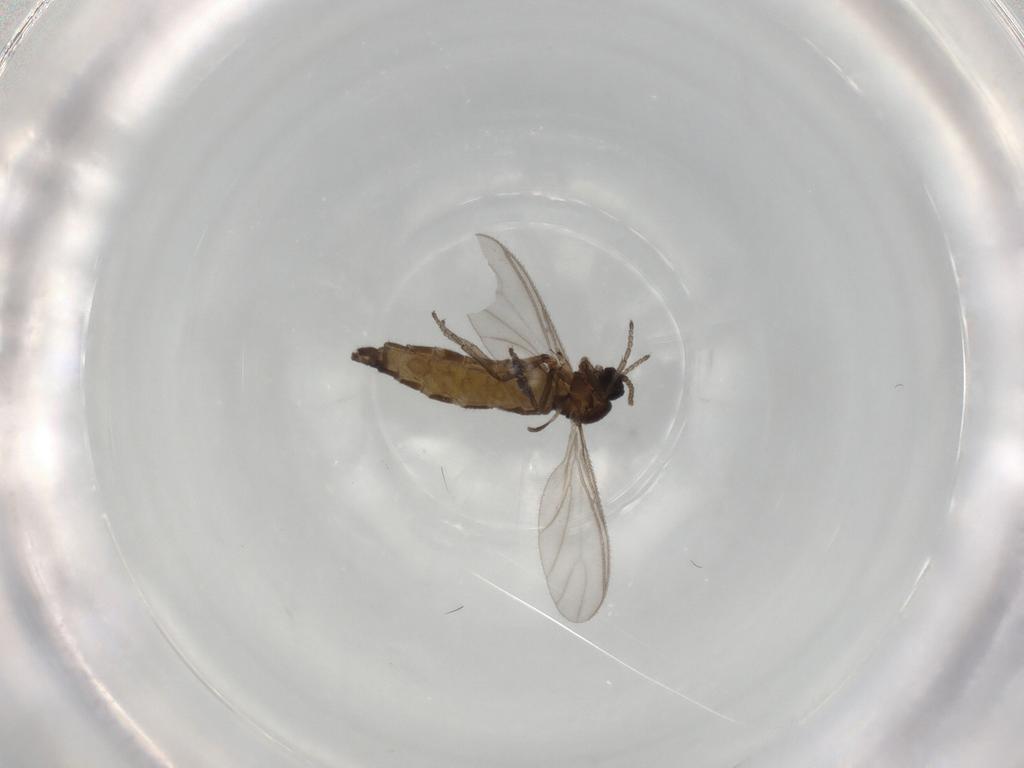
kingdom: Animalia
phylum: Arthropoda
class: Insecta
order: Diptera
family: Sciaridae
